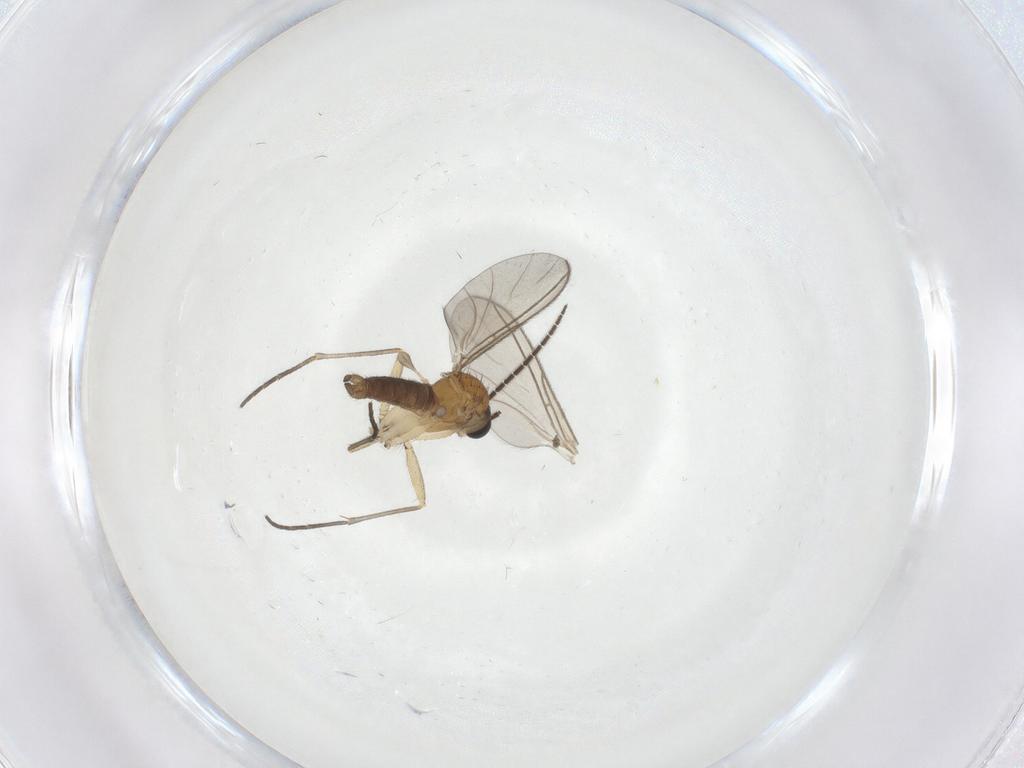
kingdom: Animalia
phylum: Arthropoda
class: Insecta
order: Diptera
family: Sciaridae
